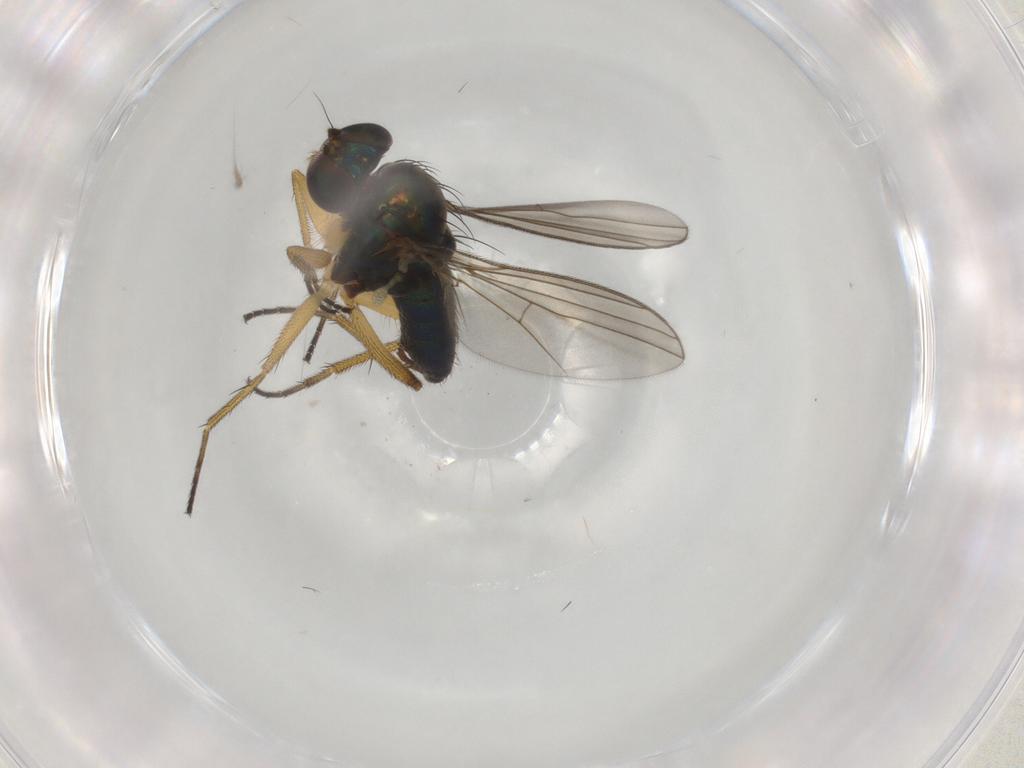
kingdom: Animalia
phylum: Arthropoda
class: Insecta
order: Diptera
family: Dolichopodidae
